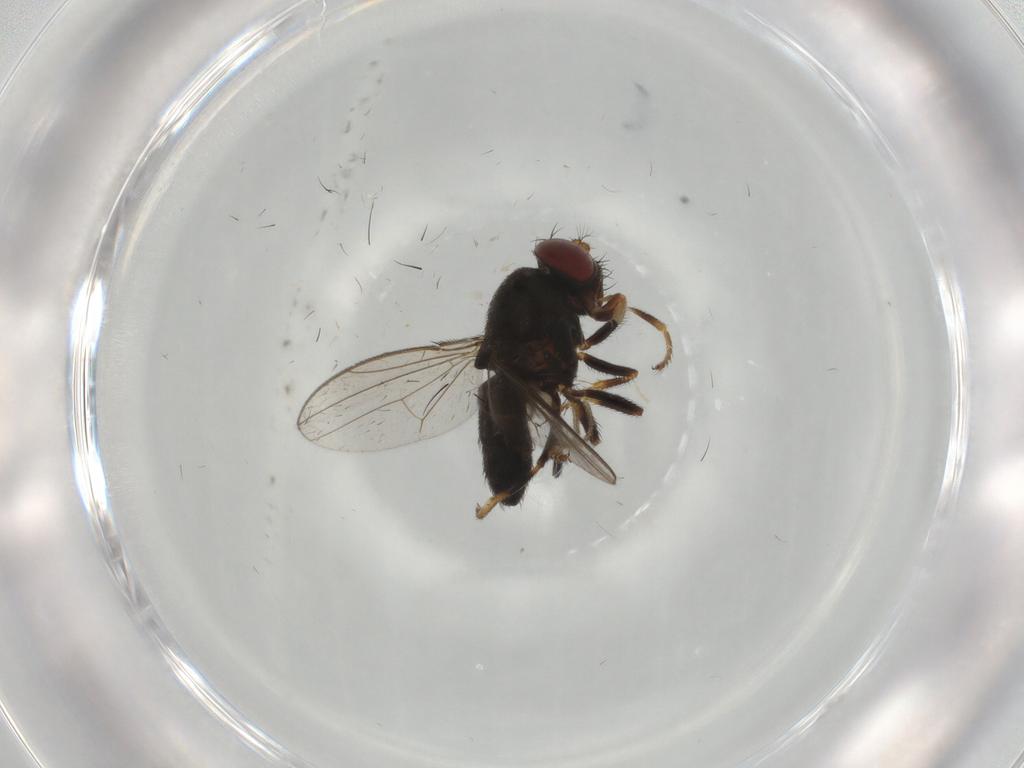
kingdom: Animalia
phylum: Arthropoda
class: Insecta
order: Diptera
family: Ephydridae
